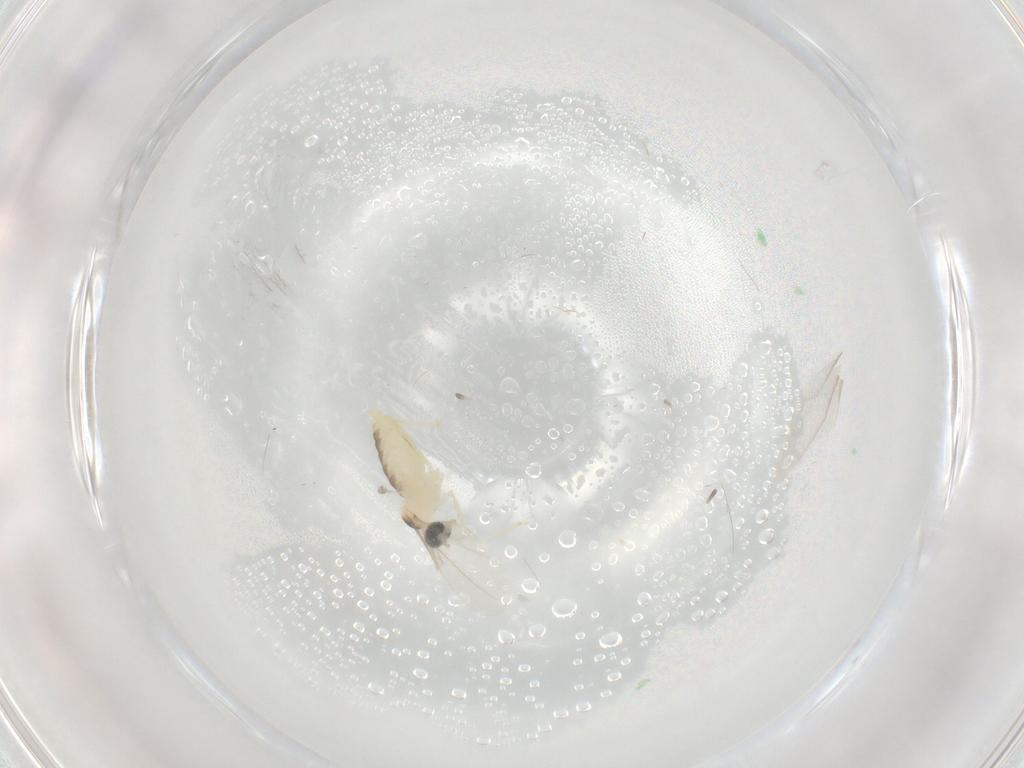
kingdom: Animalia
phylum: Arthropoda
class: Insecta
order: Diptera
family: Cecidomyiidae
